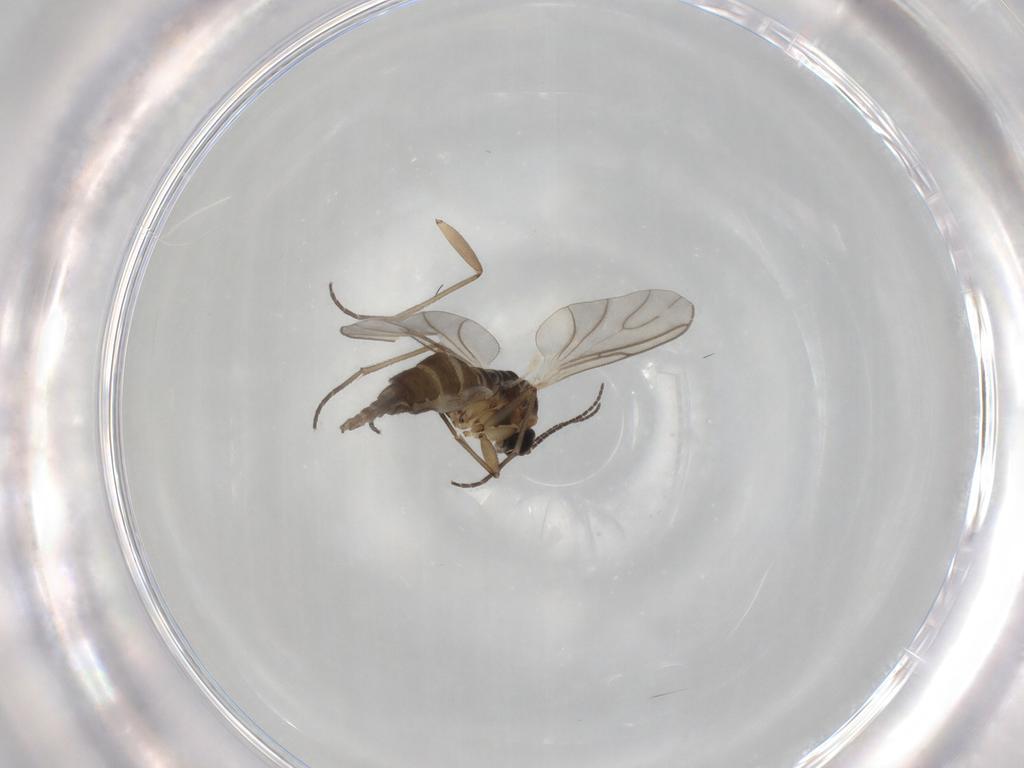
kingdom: Animalia
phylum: Arthropoda
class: Insecta
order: Diptera
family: Phoridae
